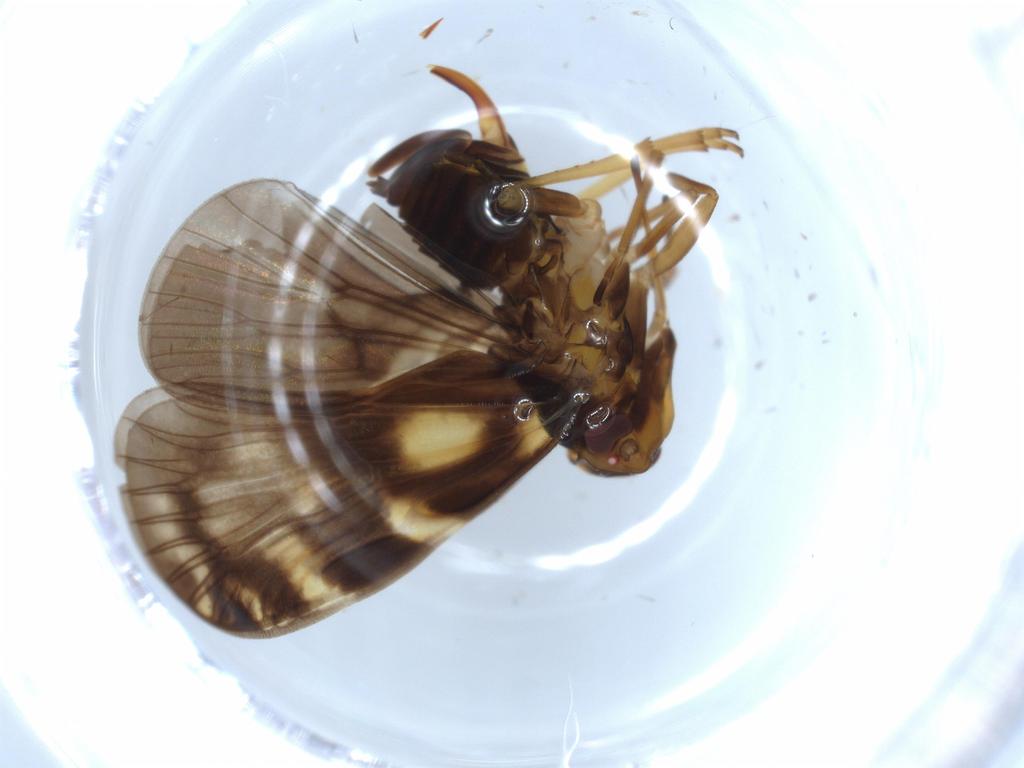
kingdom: Animalia
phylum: Arthropoda
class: Insecta
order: Hemiptera
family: Cixiidae
